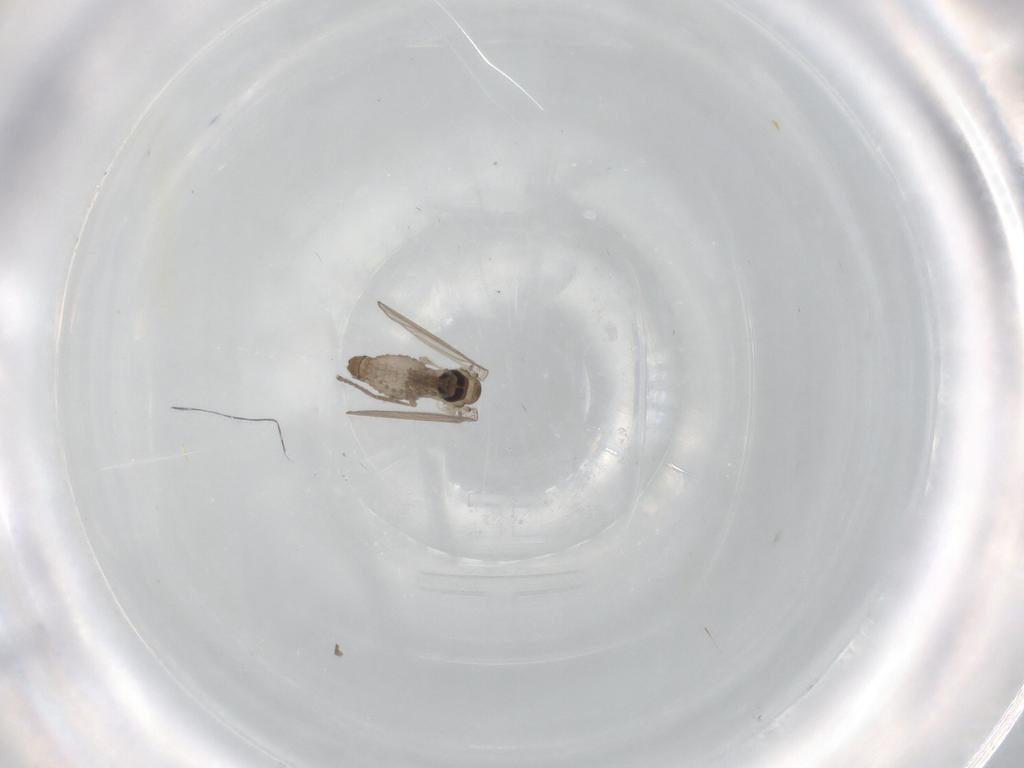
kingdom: Animalia
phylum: Arthropoda
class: Insecta
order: Diptera
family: Psychodidae
